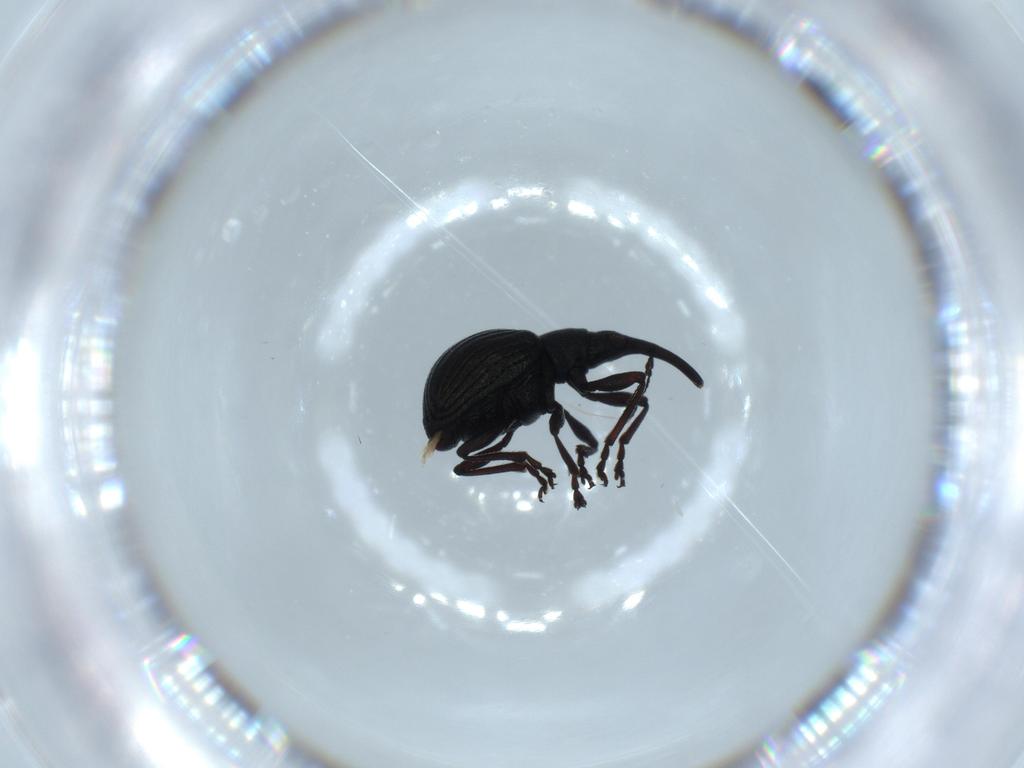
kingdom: Animalia
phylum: Arthropoda
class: Insecta
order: Coleoptera
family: Brentidae
